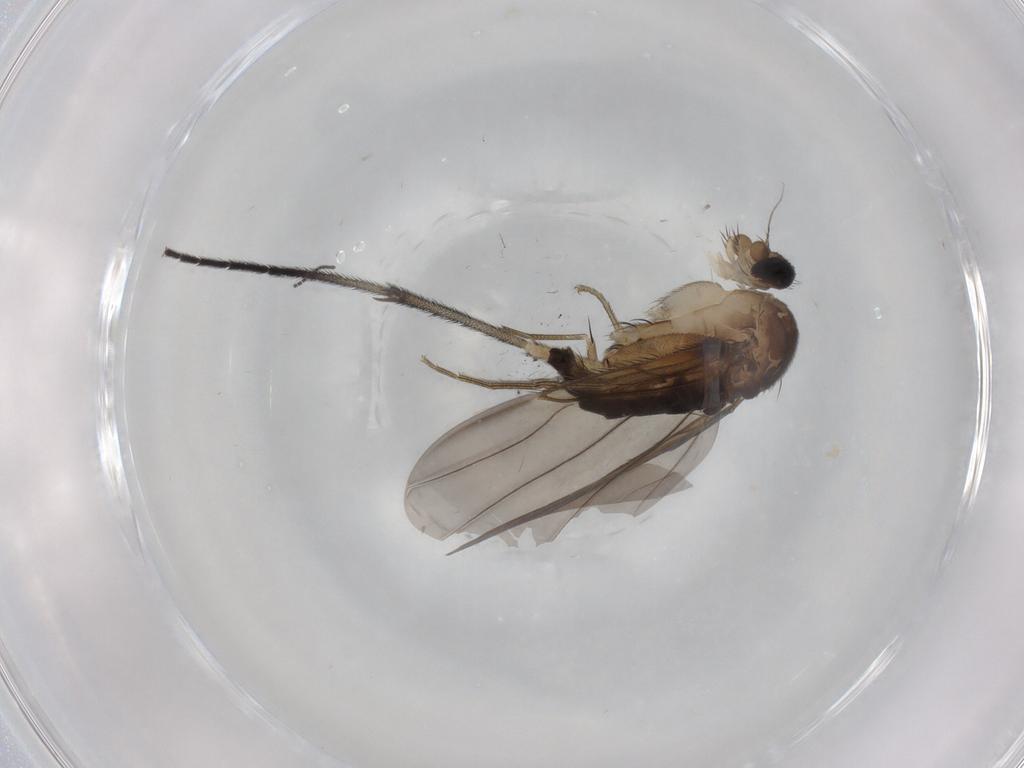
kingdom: Animalia
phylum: Arthropoda
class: Insecta
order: Diptera
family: Phoridae
